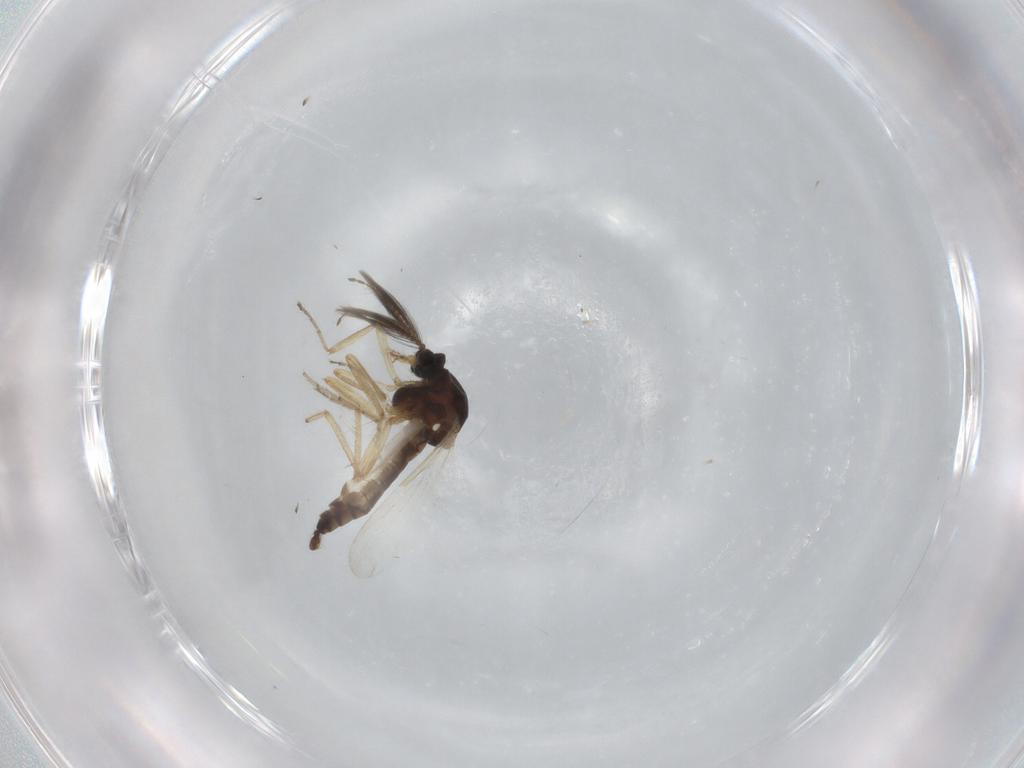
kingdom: Animalia
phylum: Arthropoda
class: Insecta
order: Diptera
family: Ceratopogonidae
